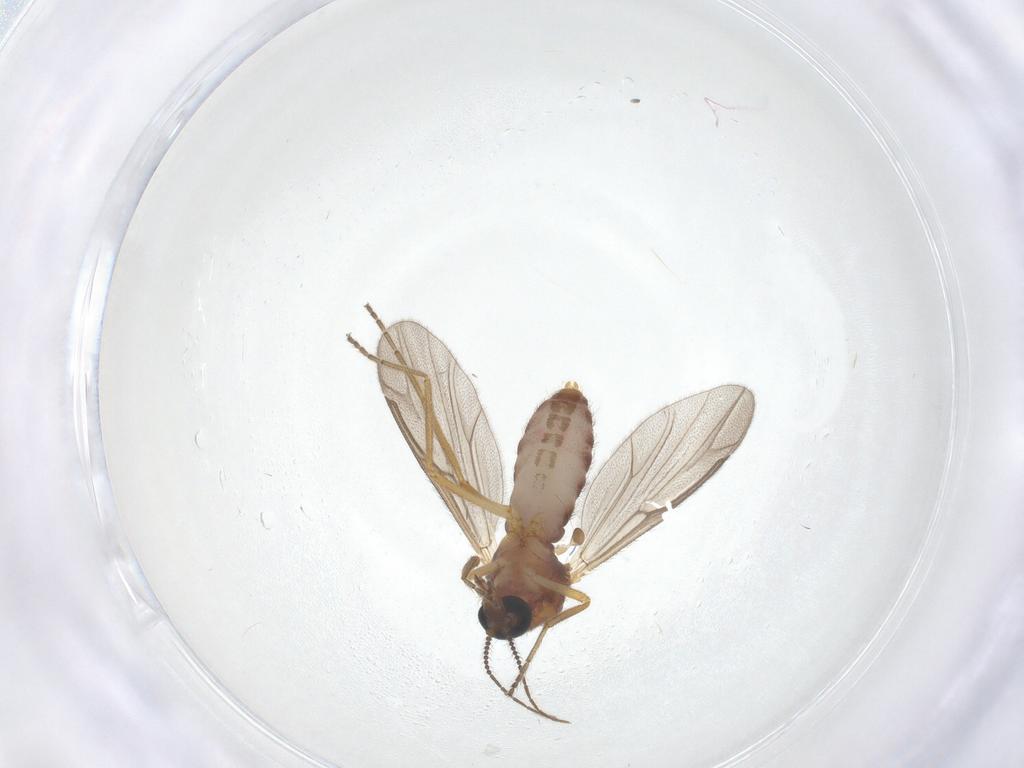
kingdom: Animalia
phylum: Arthropoda
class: Insecta
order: Diptera
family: Ceratopogonidae
